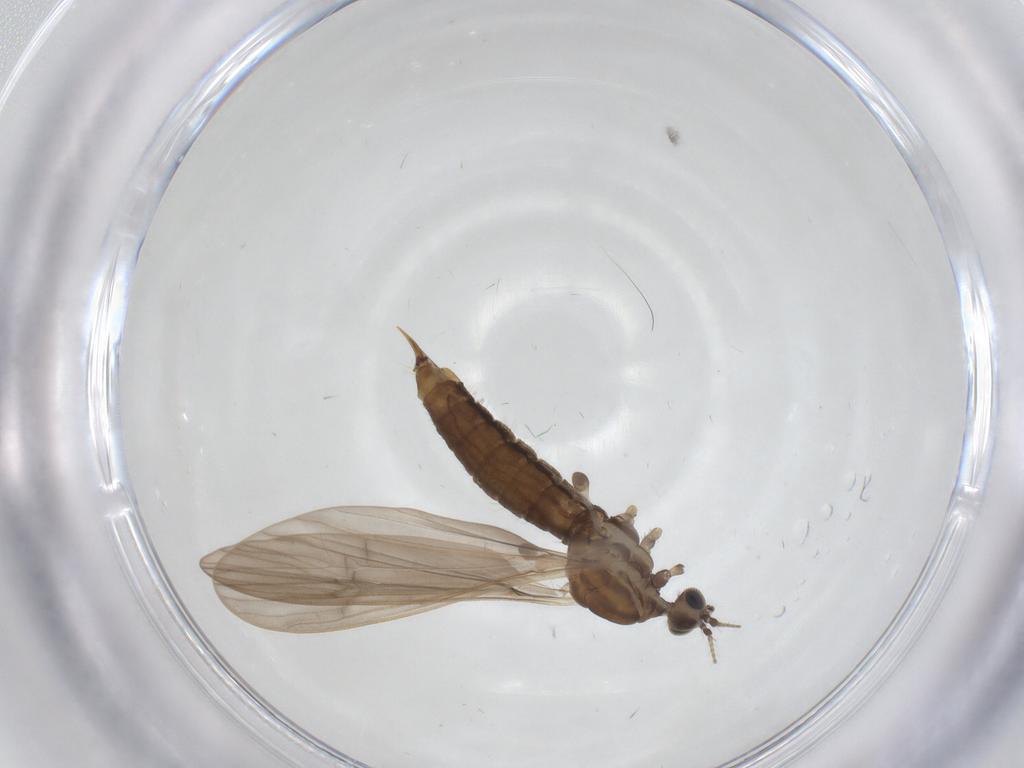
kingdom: Animalia
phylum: Arthropoda
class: Insecta
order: Diptera
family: Limoniidae
